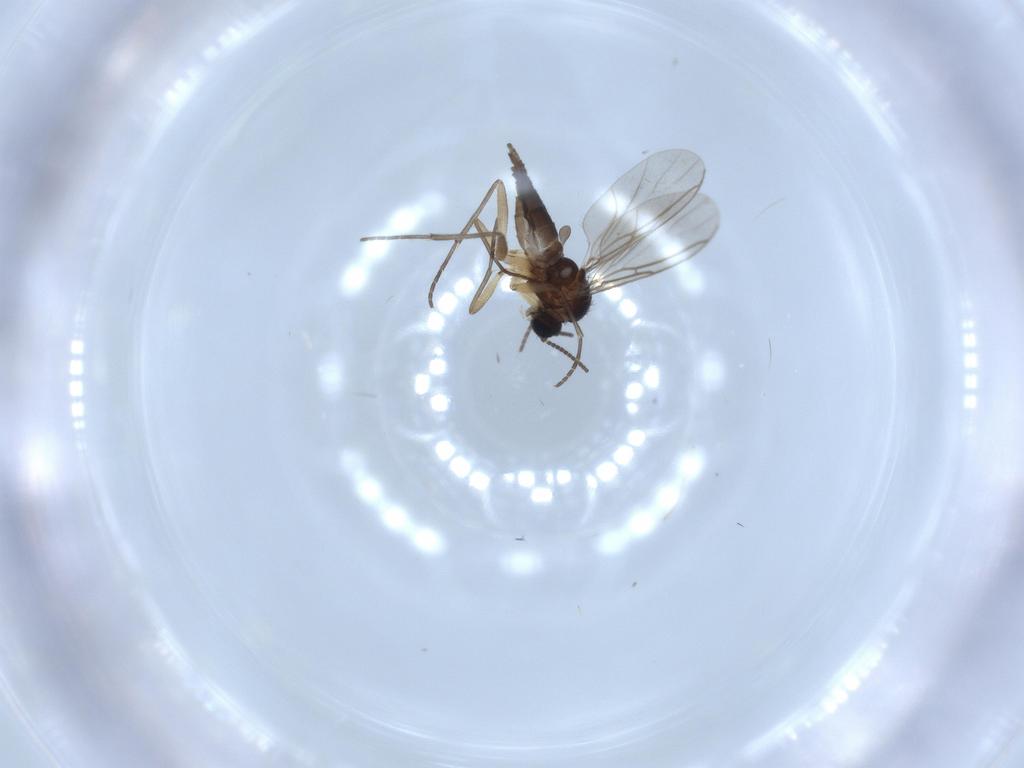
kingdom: Animalia
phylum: Arthropoda
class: Insecta
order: Diptera
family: Sciaridae
